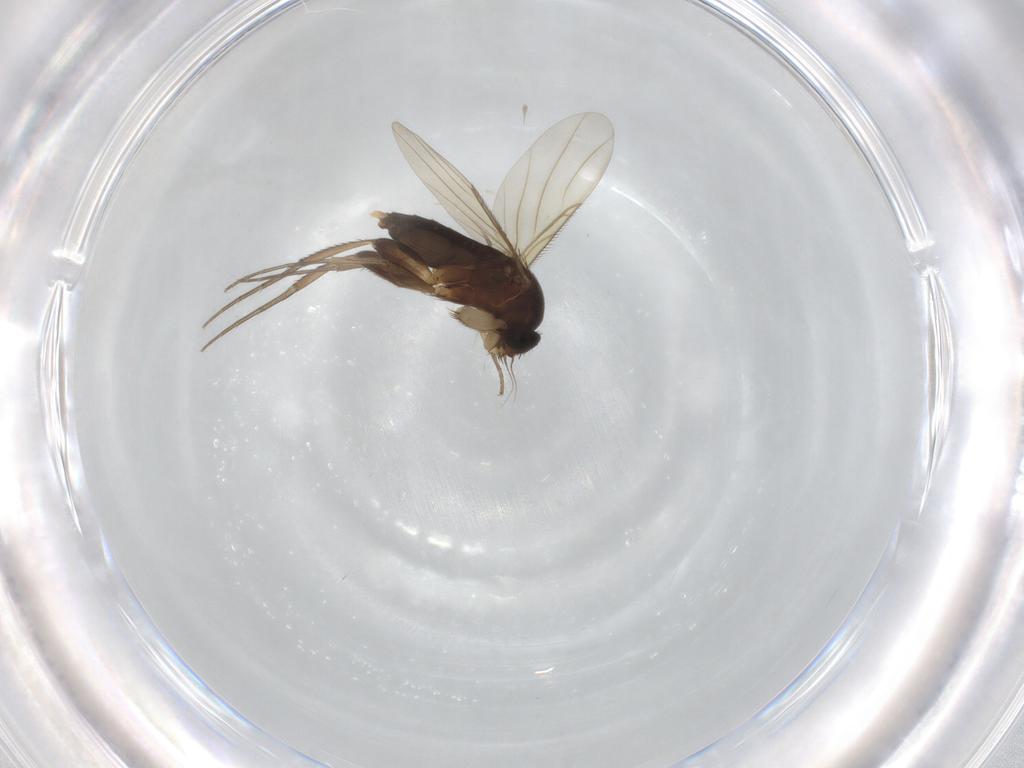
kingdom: Animalia
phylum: Arthropoda
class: Insecta
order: Diptera
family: Phoridae
